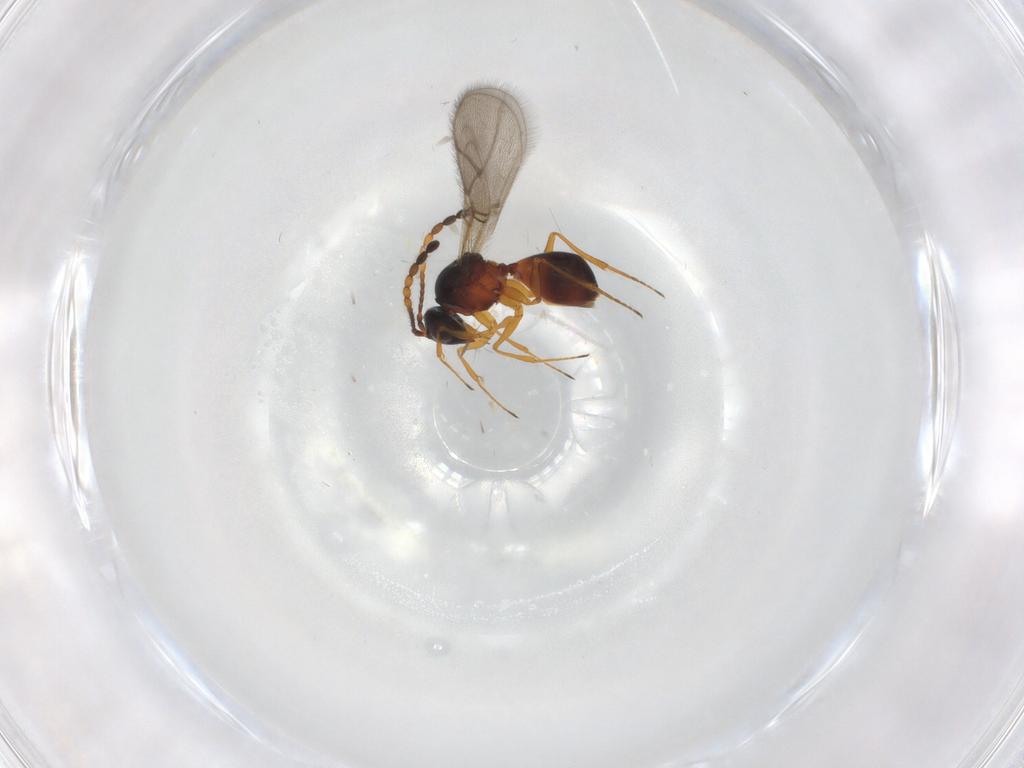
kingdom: Animalia
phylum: Arthropoda
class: Insecta
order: Hymenoptera
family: Figitidae
